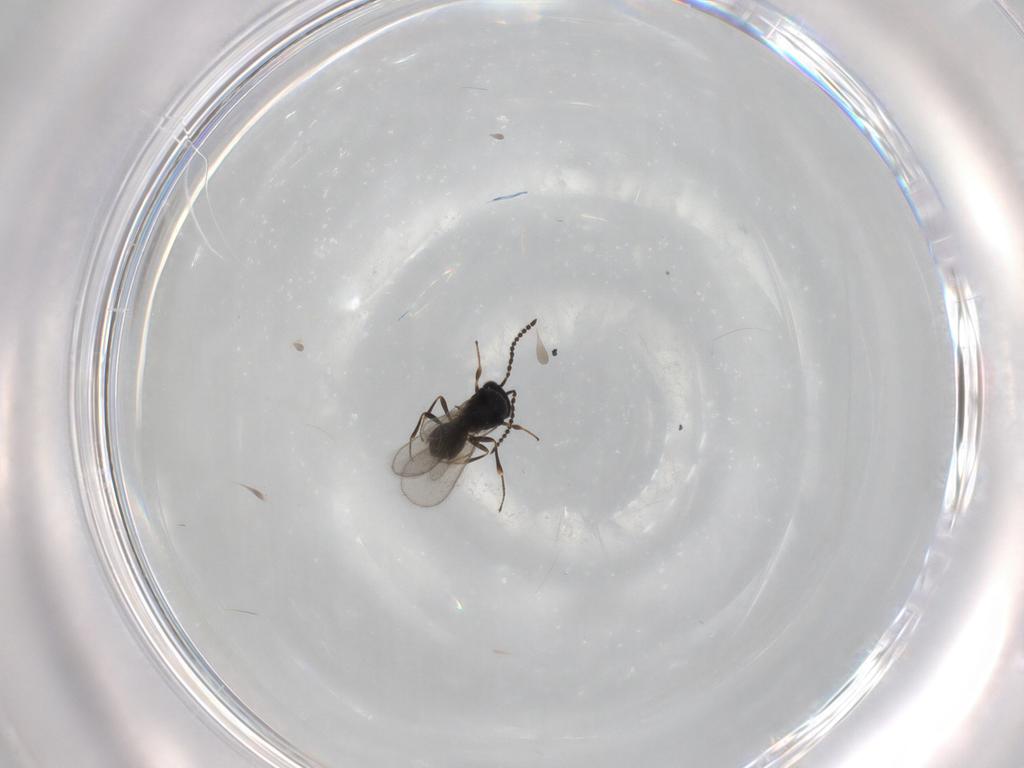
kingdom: Animalia
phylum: Arthropoda
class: Insecta
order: Hymenoptera
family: Scelionidae
